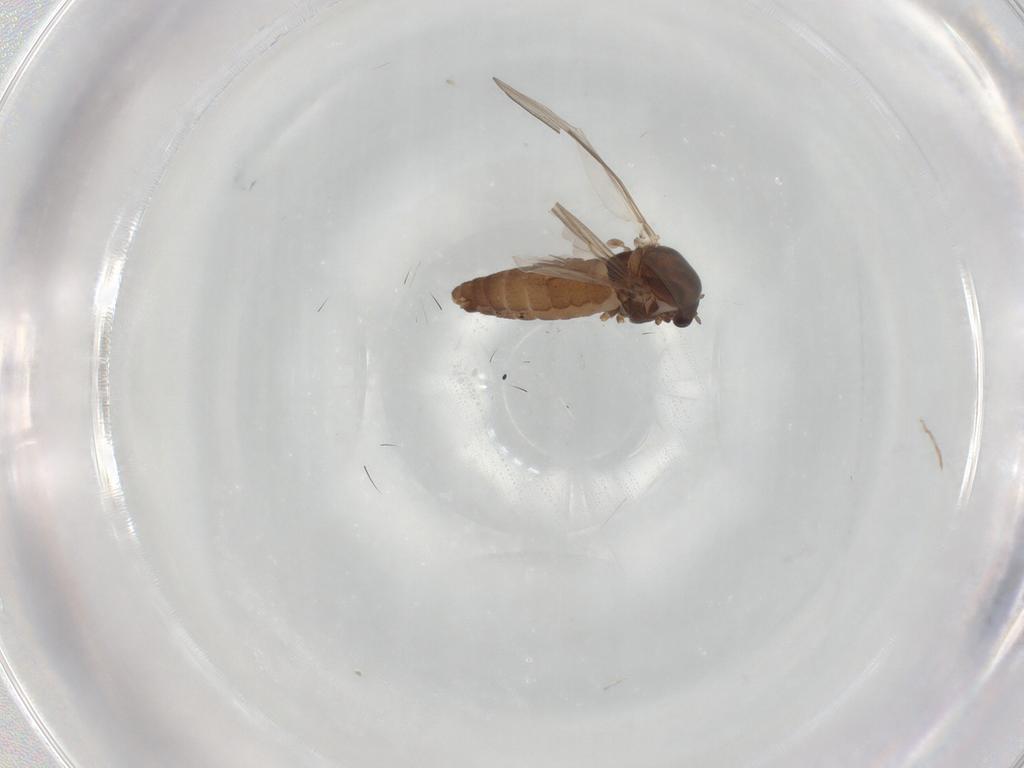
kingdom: Animalia
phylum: Arthropoda
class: Insecta
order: Diptera
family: Chironomidae
